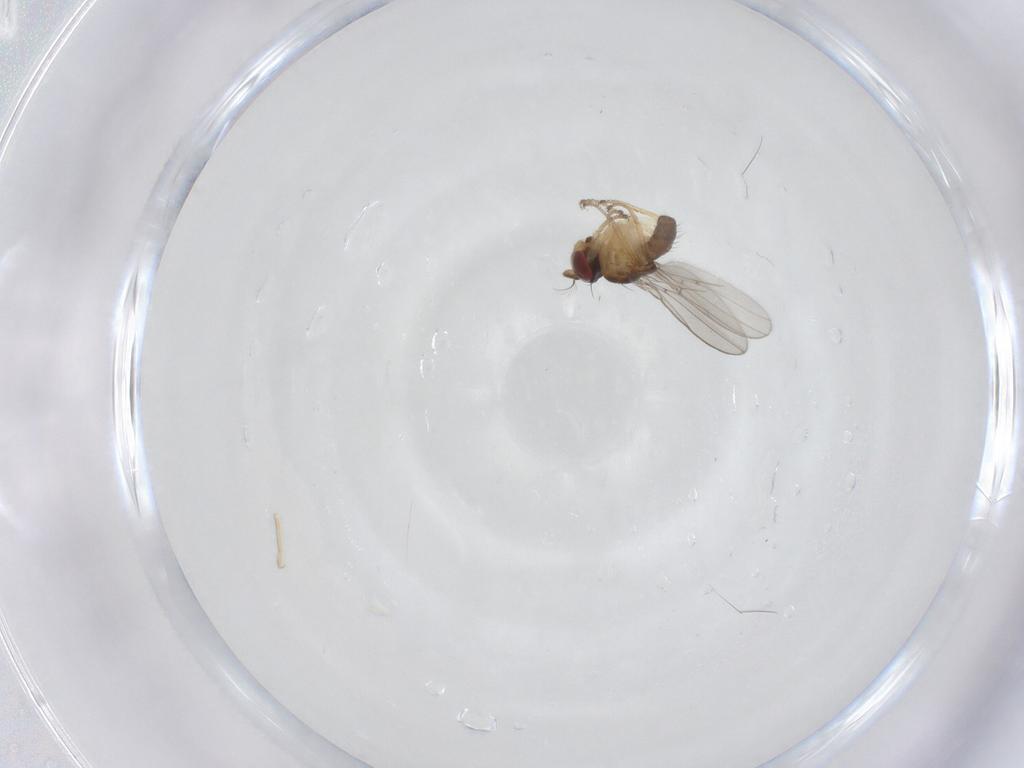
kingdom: Animalia
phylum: Arthropoda
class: Insecta
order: Diptera
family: Ephydridae
